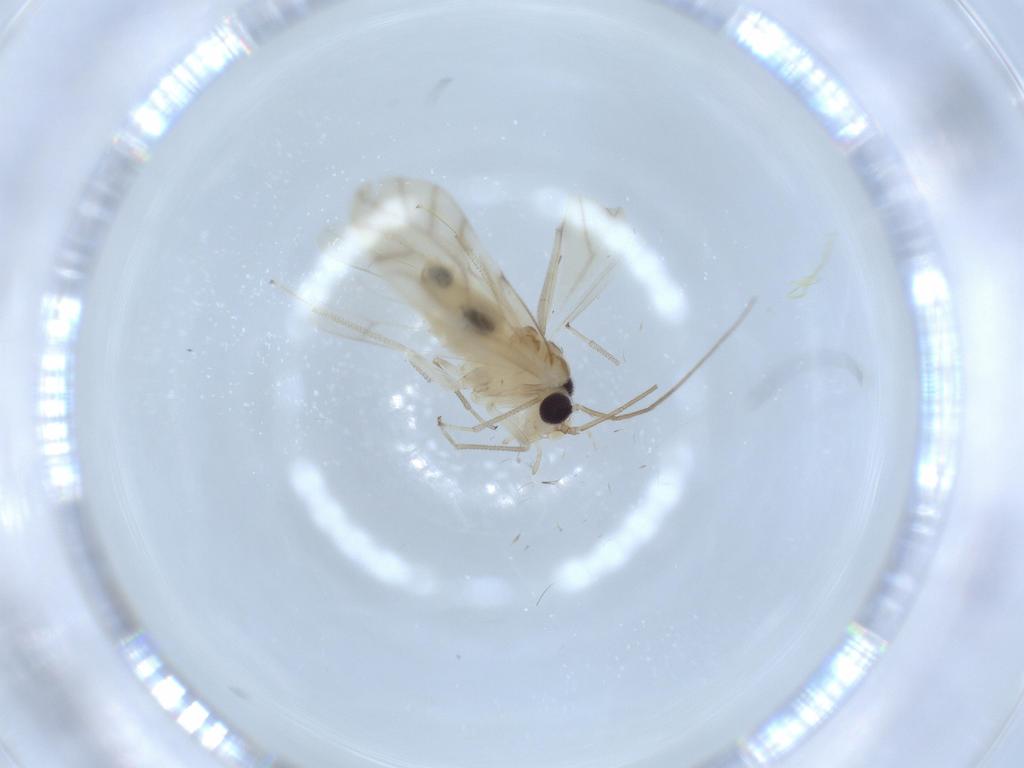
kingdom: Animalia
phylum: Arthropoda
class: Insecta
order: Psocodea
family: Caeciliusidae
